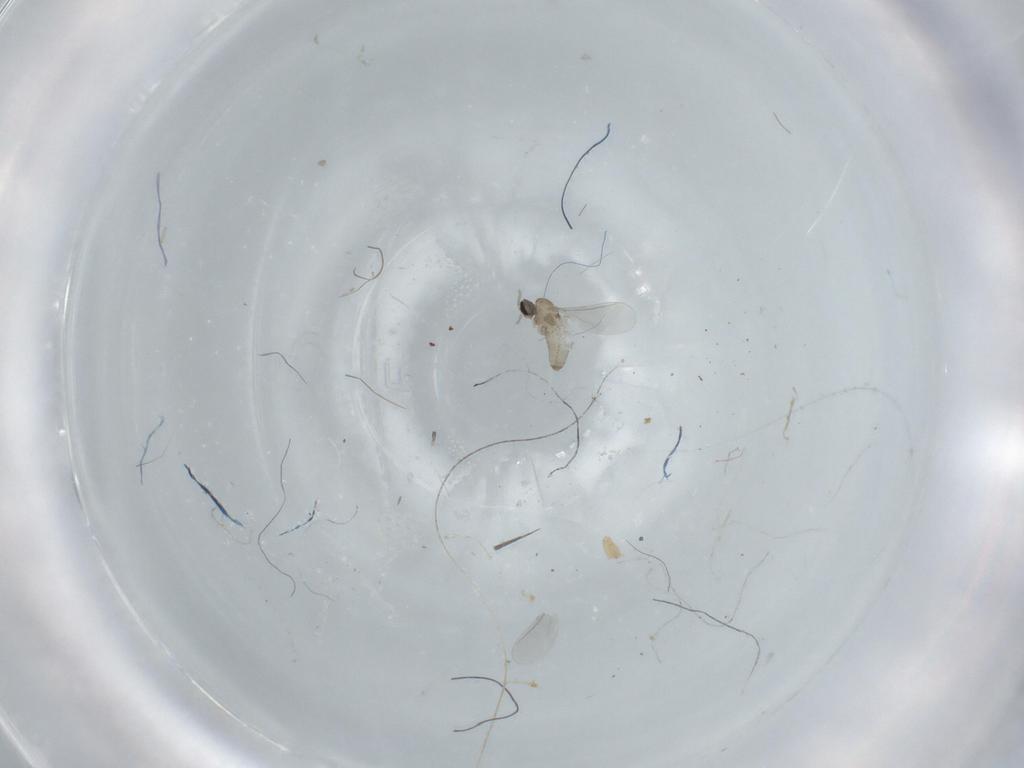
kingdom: Animalia
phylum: Arthropoda
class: Insecta
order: Diptera
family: Cecidomyiidae
